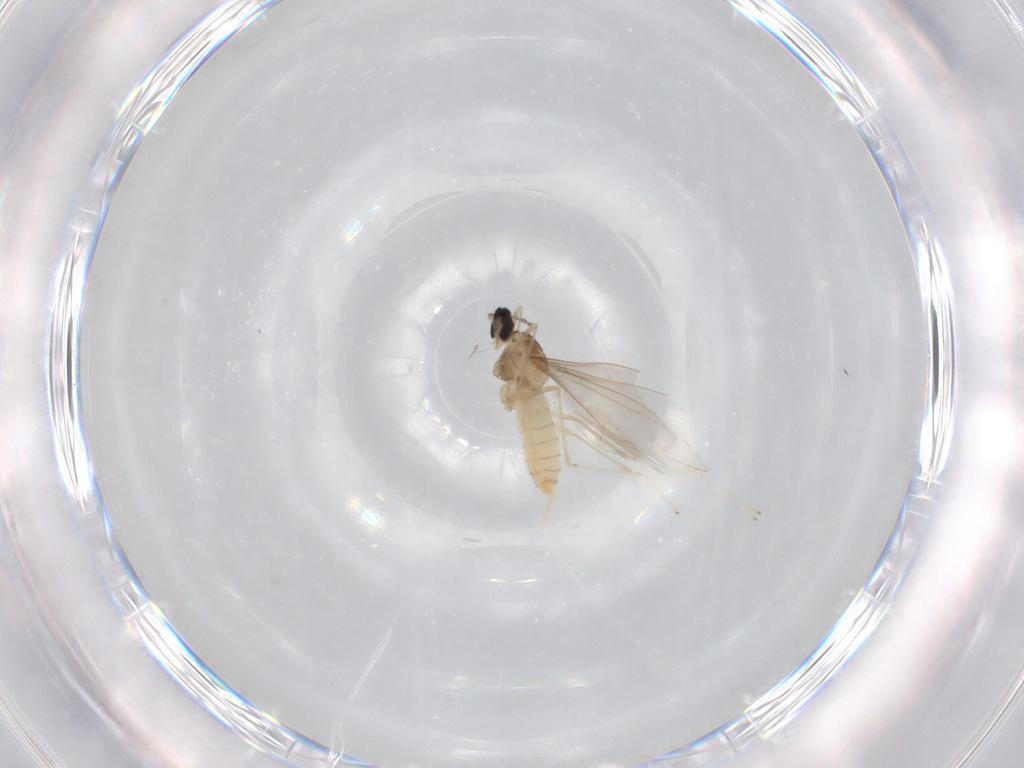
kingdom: Animalia
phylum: Arthropoda
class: Insecta
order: Diptera
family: Cecidomyiidae
